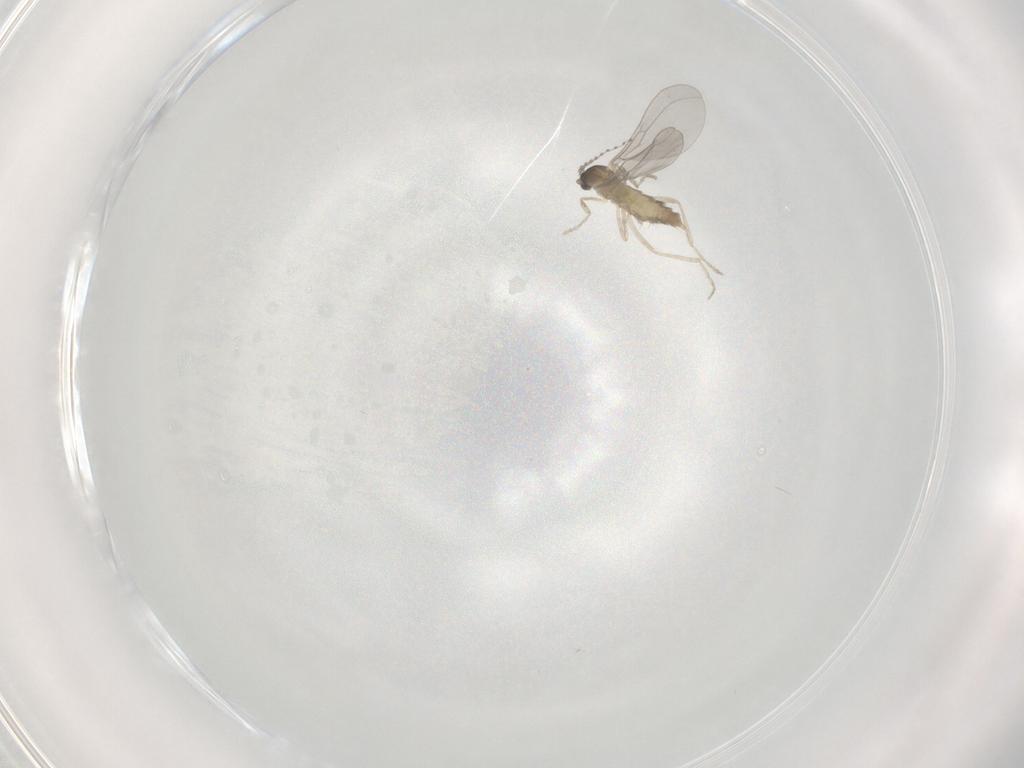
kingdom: Animalia
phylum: Arthropoda
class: Insecta
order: Diptera
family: Cecidomyiidae
